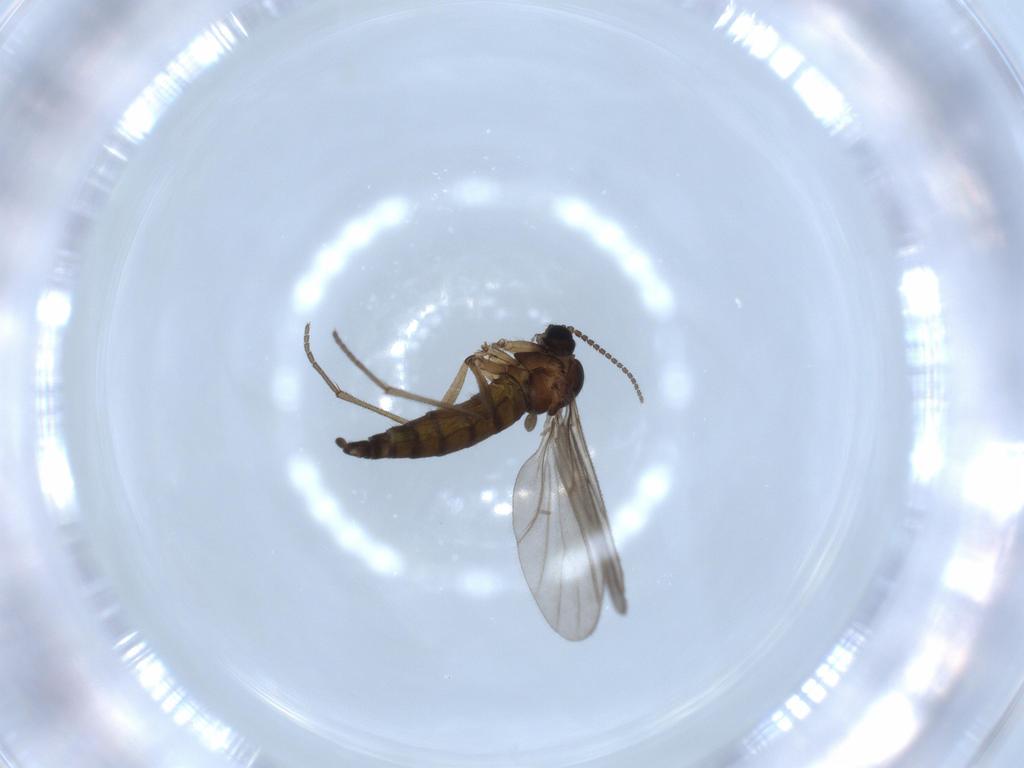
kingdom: Animalia
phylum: Arthropoda
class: Insecta
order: Diptera
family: Sciaridae
